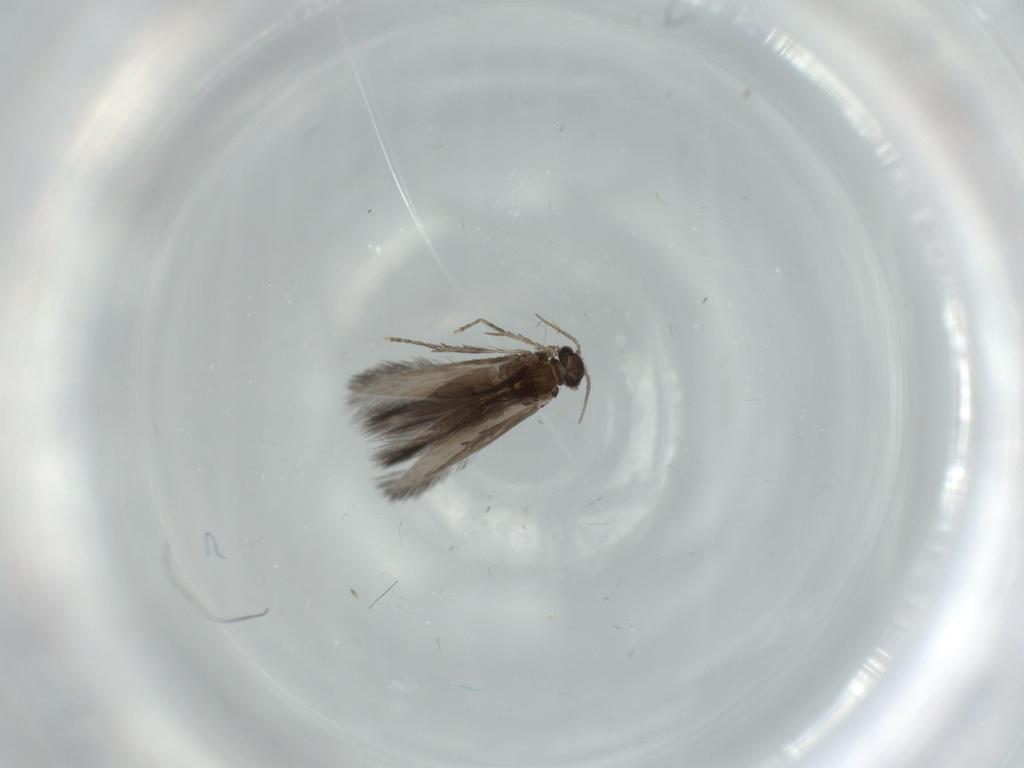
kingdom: Animalia
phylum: Arthropoda
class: Insecta
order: Trichoptera
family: Hydroptilidae
